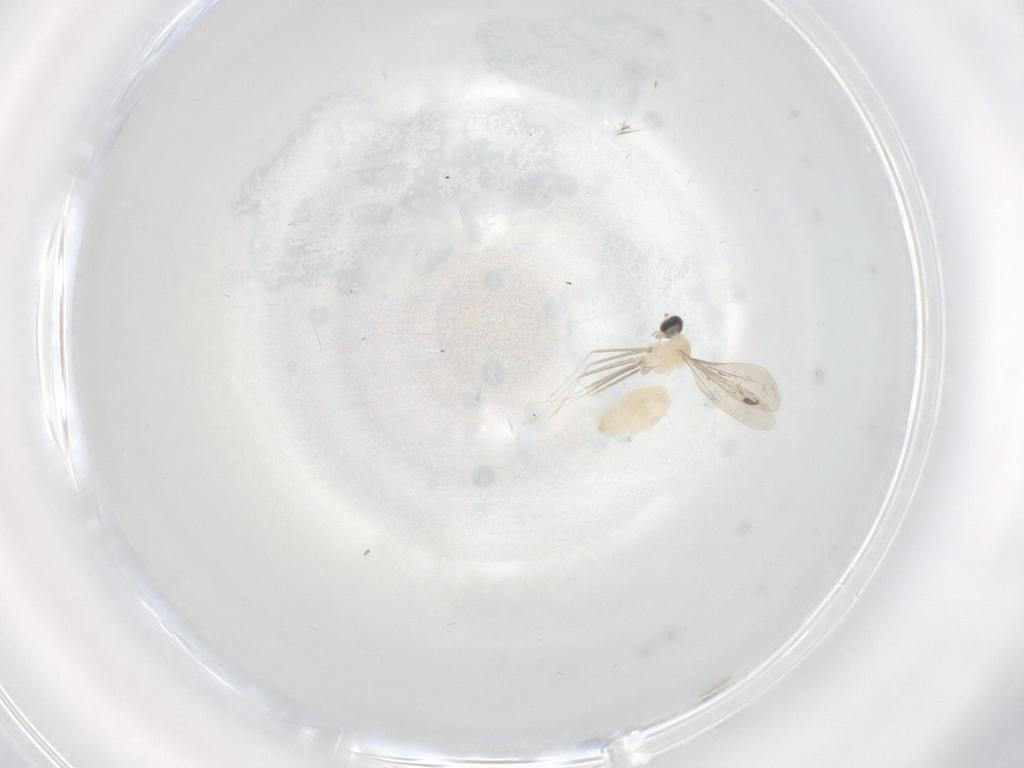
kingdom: Animalia
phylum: Arthropoda
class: Insecta
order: Diptera
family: Cecidomyiidae
